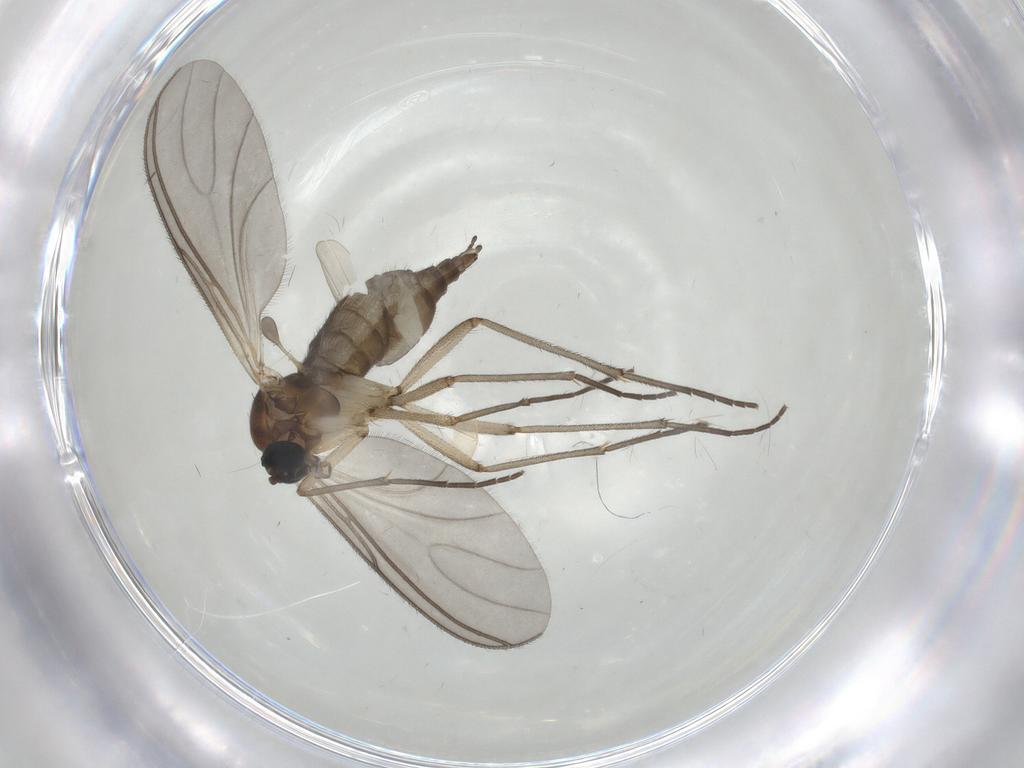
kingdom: Animalia
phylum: Arthropoda
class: Insecta
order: Diptera
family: Sciaridae
